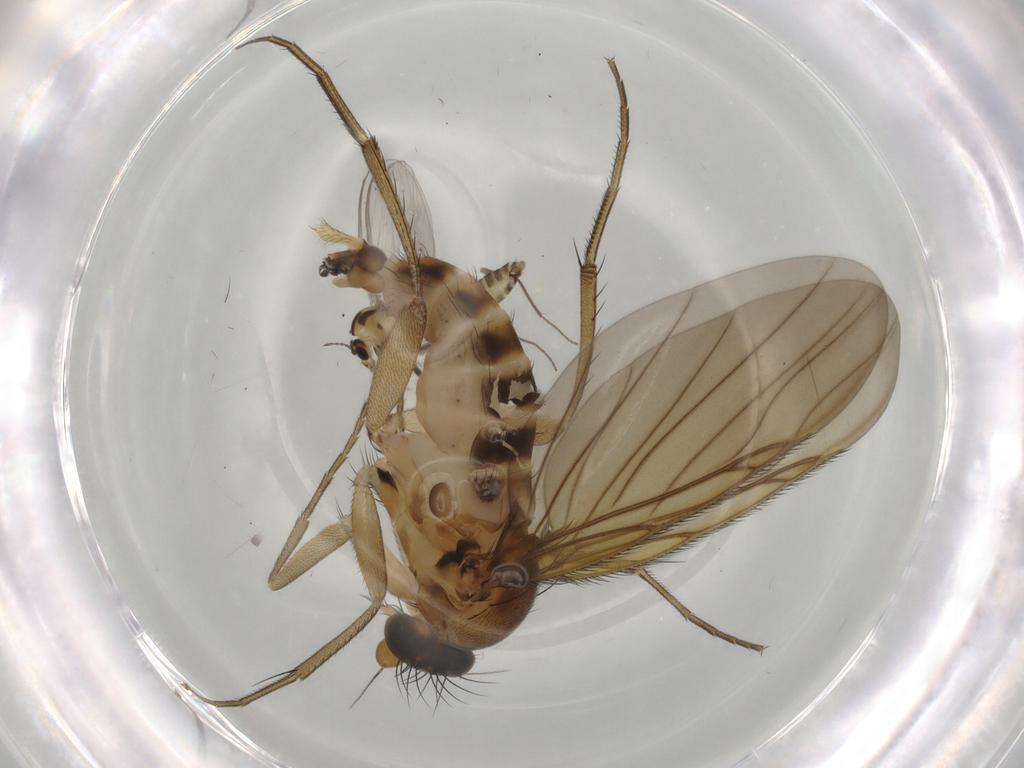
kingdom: Animalia
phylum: Arthropoda
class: Insecta
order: Diptera
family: Chironomidae
